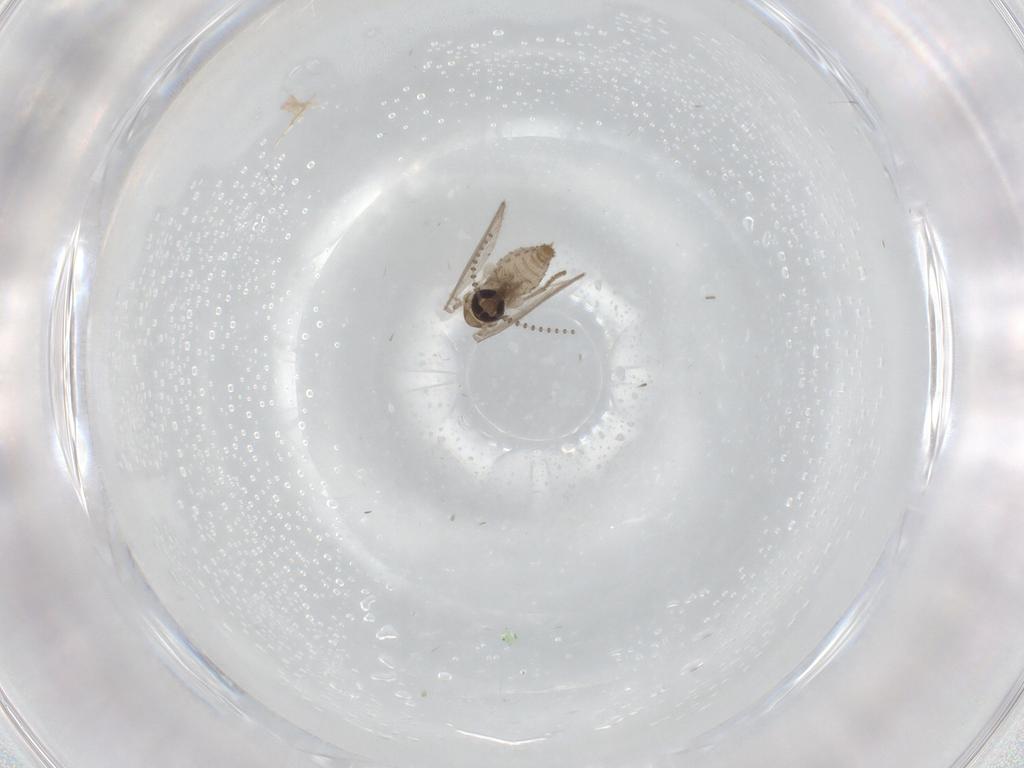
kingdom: Animalia
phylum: Arthropoda
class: Insecta
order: Diptera
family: Psychodidae
